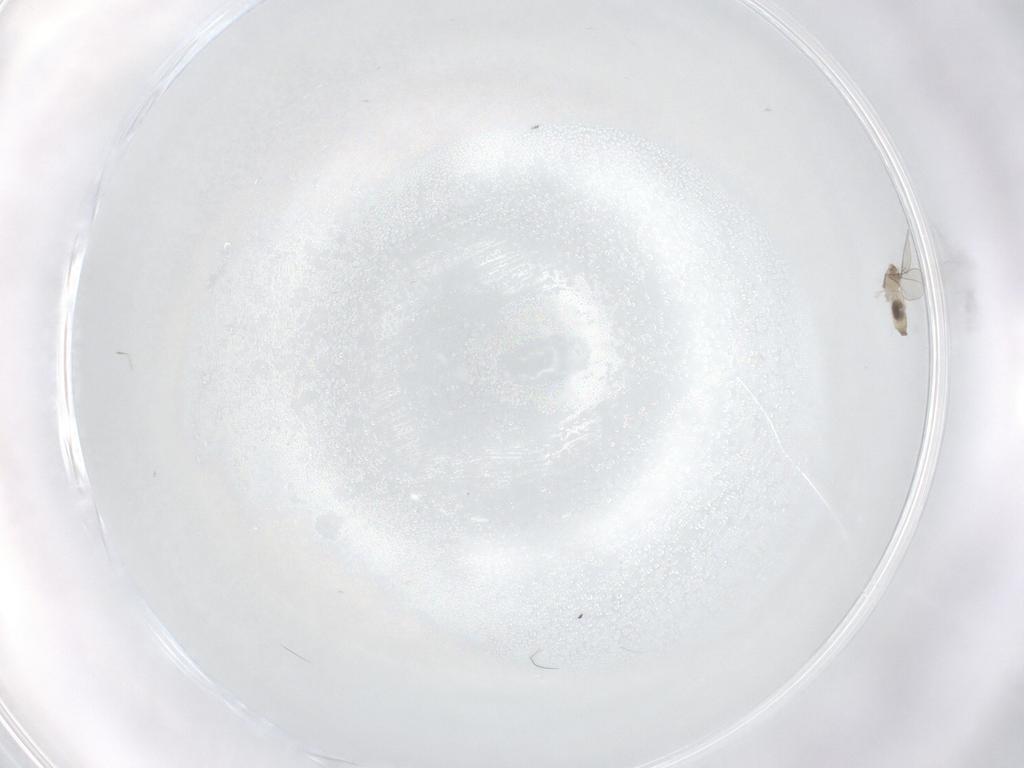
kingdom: Animalia
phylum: Arthropoda
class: Insecta
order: Diptera
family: Cecidomyiidae
